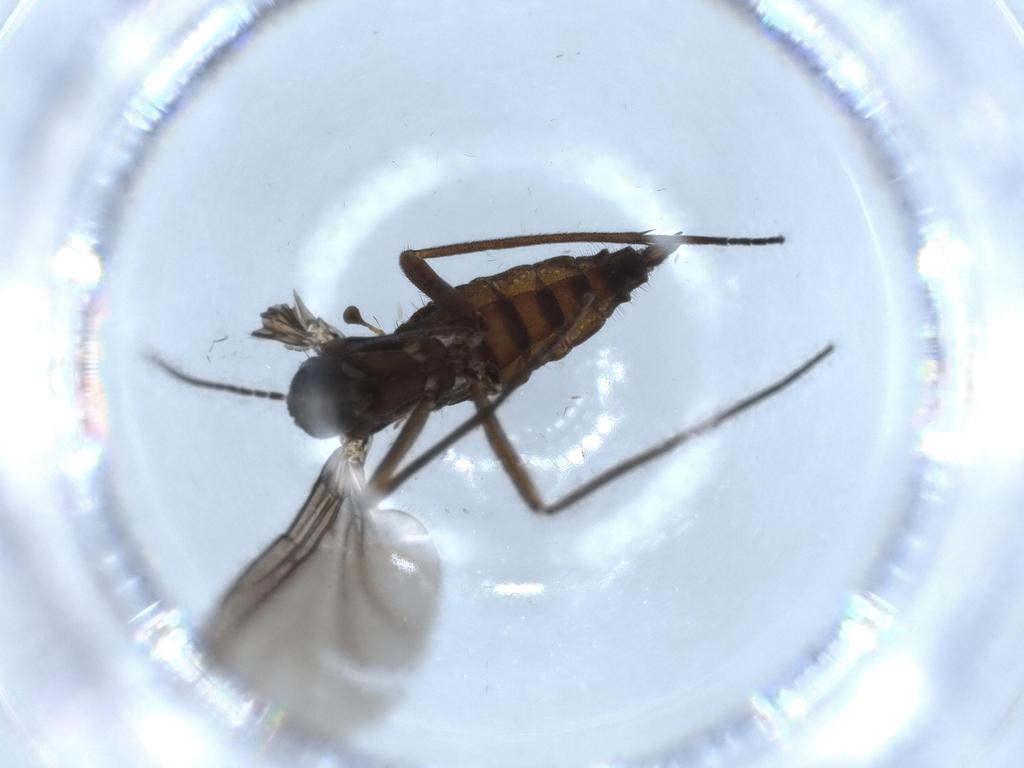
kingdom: Animalia
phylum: Arthropoda
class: Insecta
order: Diptera
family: Sciaridae
